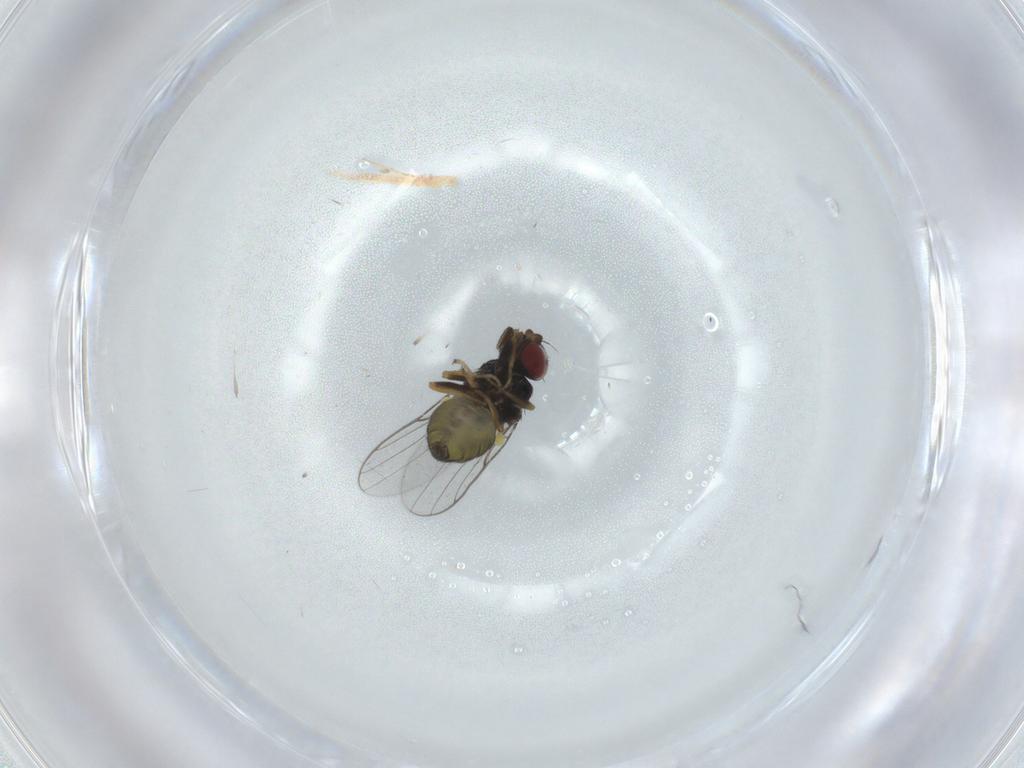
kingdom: Animalia
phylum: Arthropoda
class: Insecta
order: Diptera
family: Chloropidae
